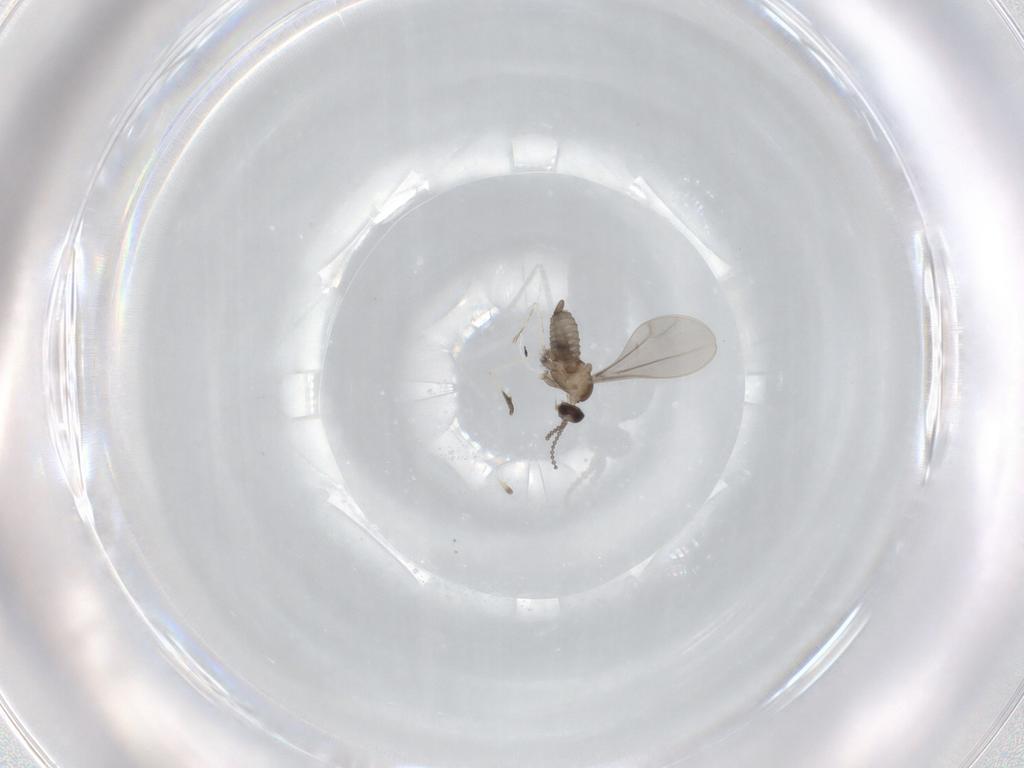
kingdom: Animalia
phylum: Arthropoda
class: Insecta
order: Diptera
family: Cecidomyiidae
